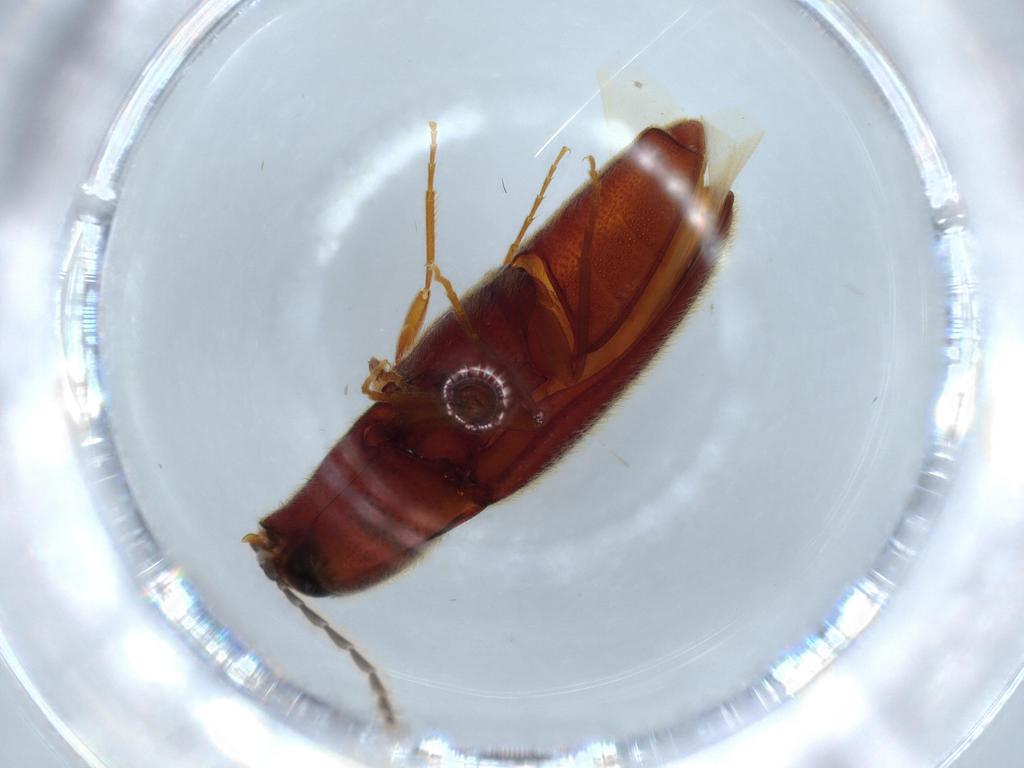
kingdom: Animalia
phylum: Arthropoda
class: Insecta
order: Coleoptera
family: Elateridae
